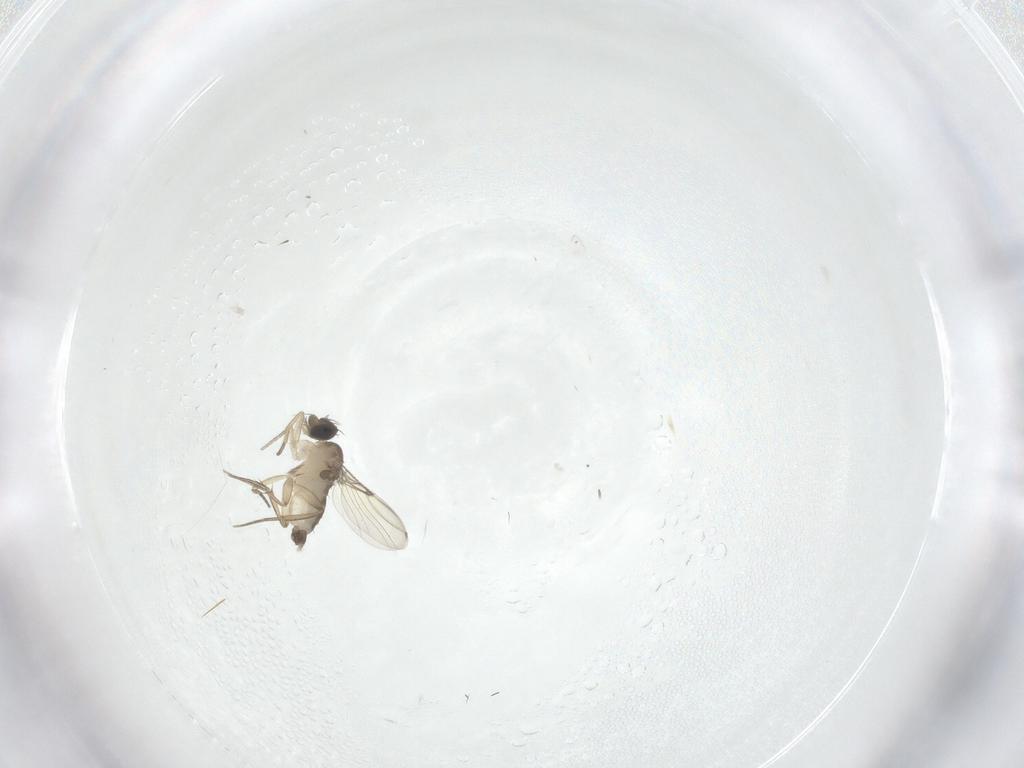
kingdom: Animalia
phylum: Arthropoda
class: Insecta
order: Diptera
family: Phoridae
